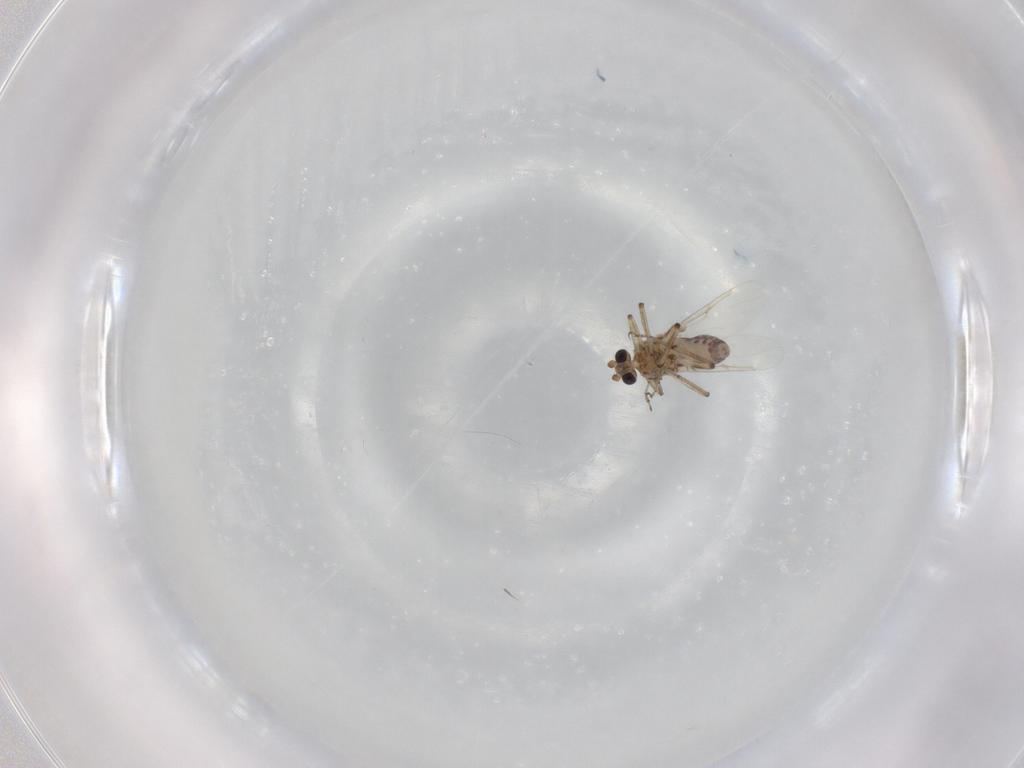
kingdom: Animalia
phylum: Arthropoda
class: Insecta
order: Diptera
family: Ceratopogonidae
